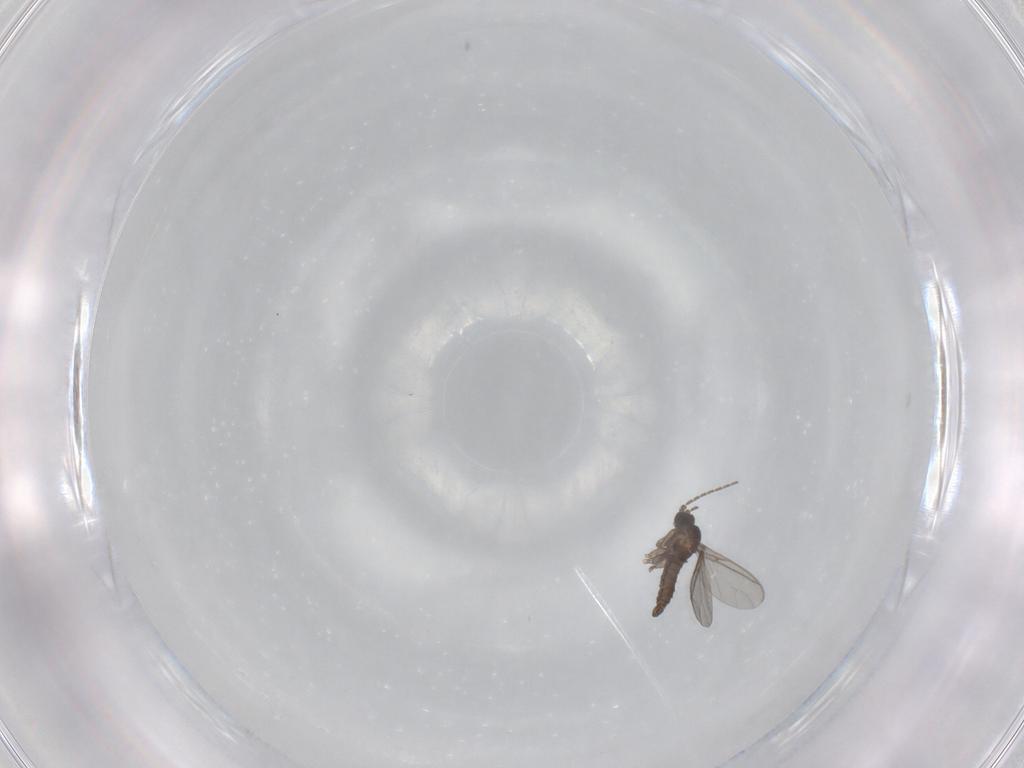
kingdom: Animalia
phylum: Arthropoda
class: Insecta
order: Diptera
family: Sciaridae
